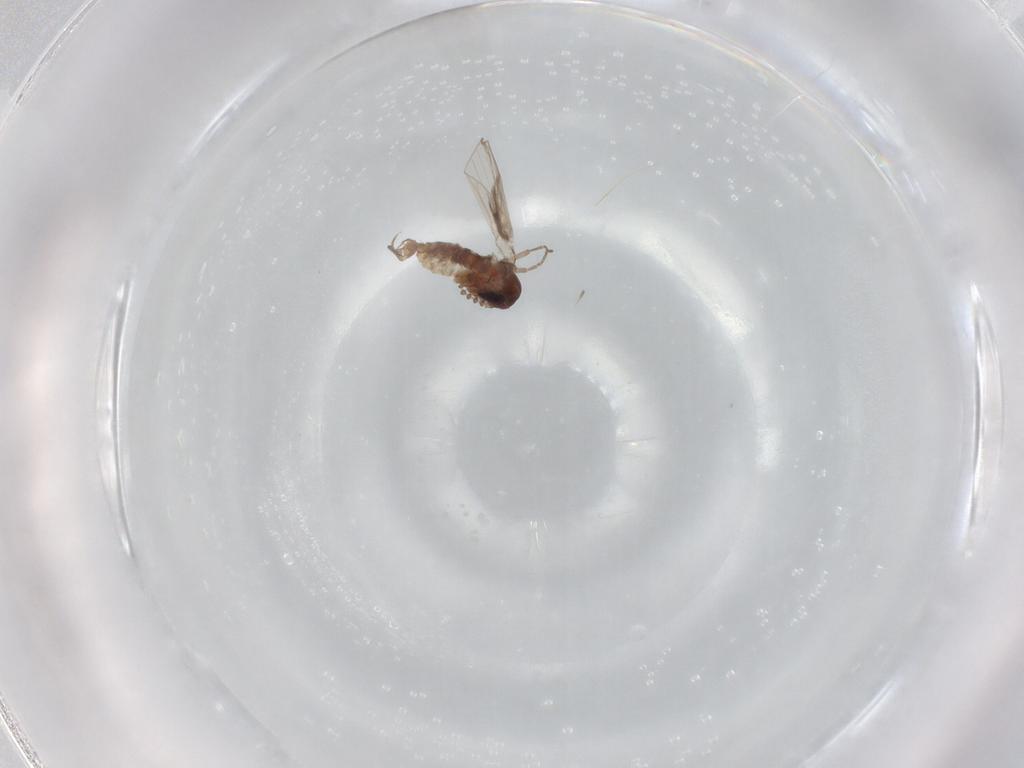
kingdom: Animalia
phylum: Arthropoda
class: Insecta
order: Diptera
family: Psychodidae
